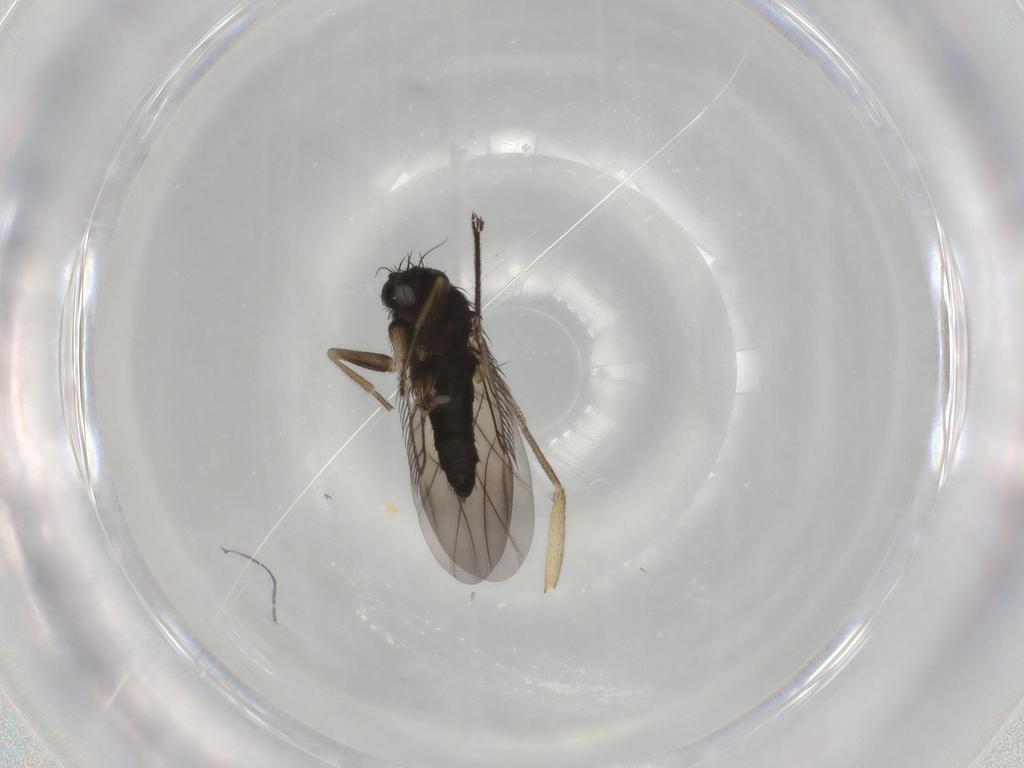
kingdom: Animalia
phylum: Arthropoda
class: Insecta
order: Diptera
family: Phoridae
